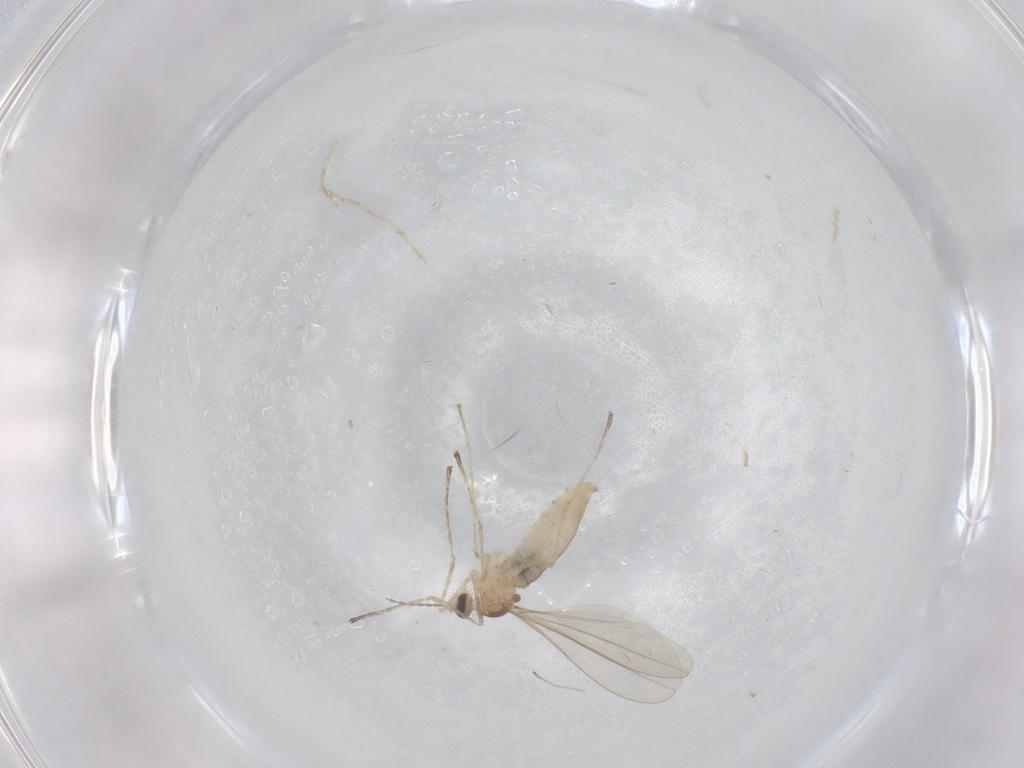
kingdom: Animalia
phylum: Arthropoda
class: Insecta
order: Diptera
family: Cecidomyiidae
